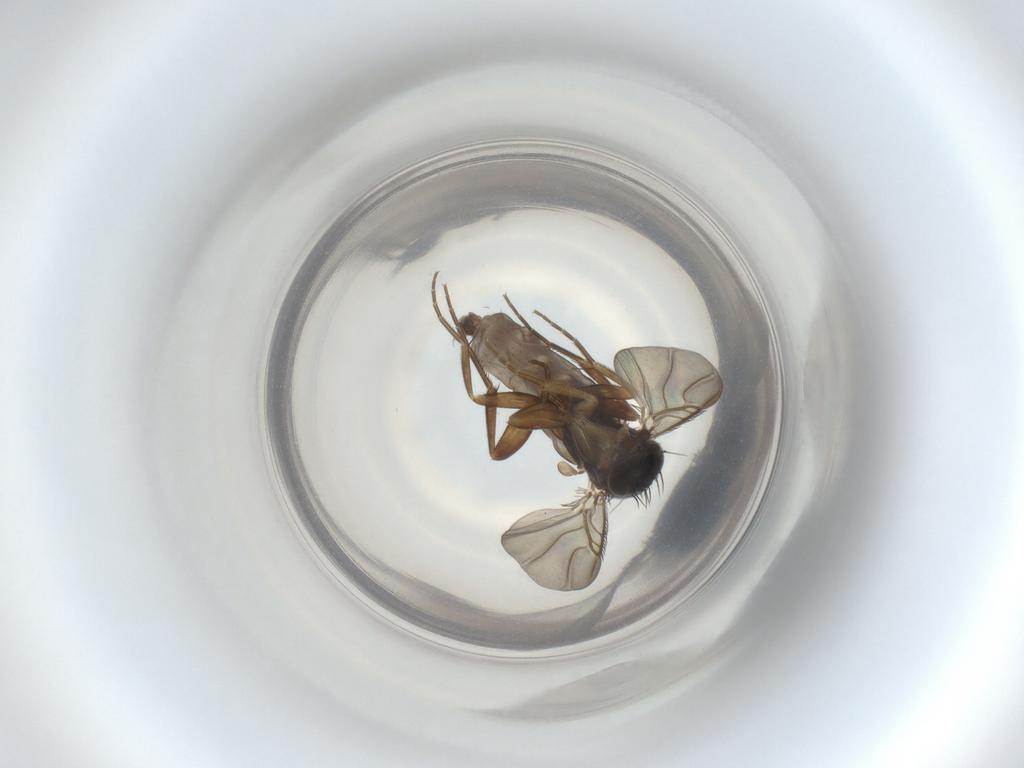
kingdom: Animalia
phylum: Arthropoda
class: Insecta
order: Diptera
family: Phoridae
